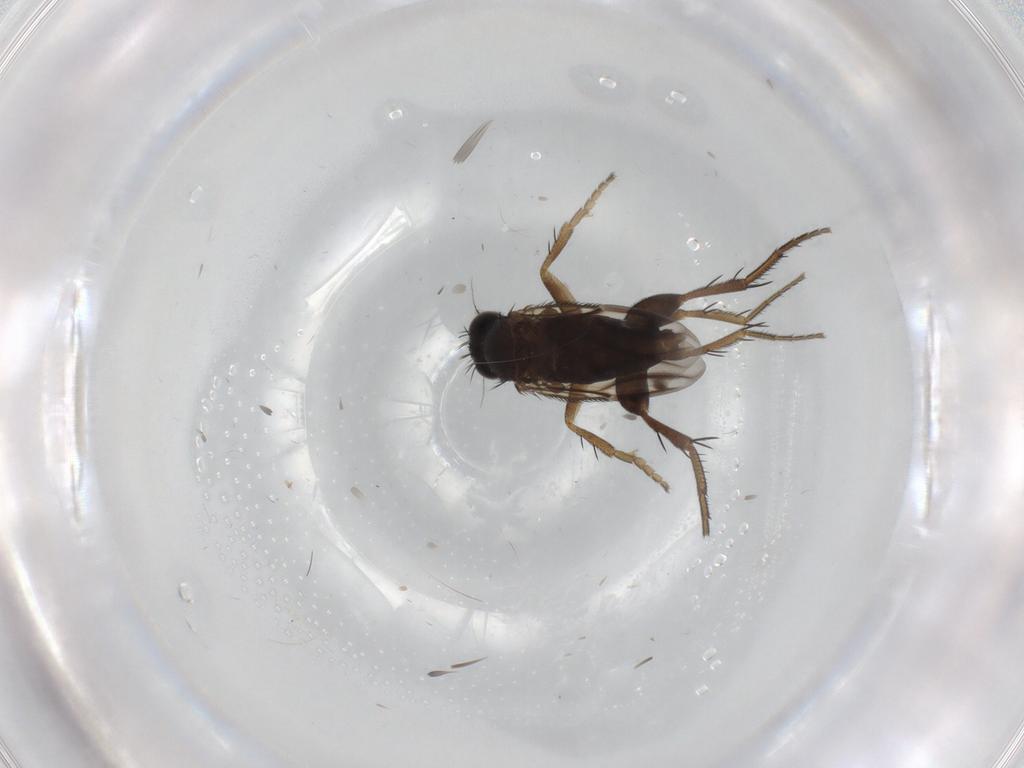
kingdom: Animalia
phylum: Arthropoda
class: Insecta
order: Diptera
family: Phoridae
